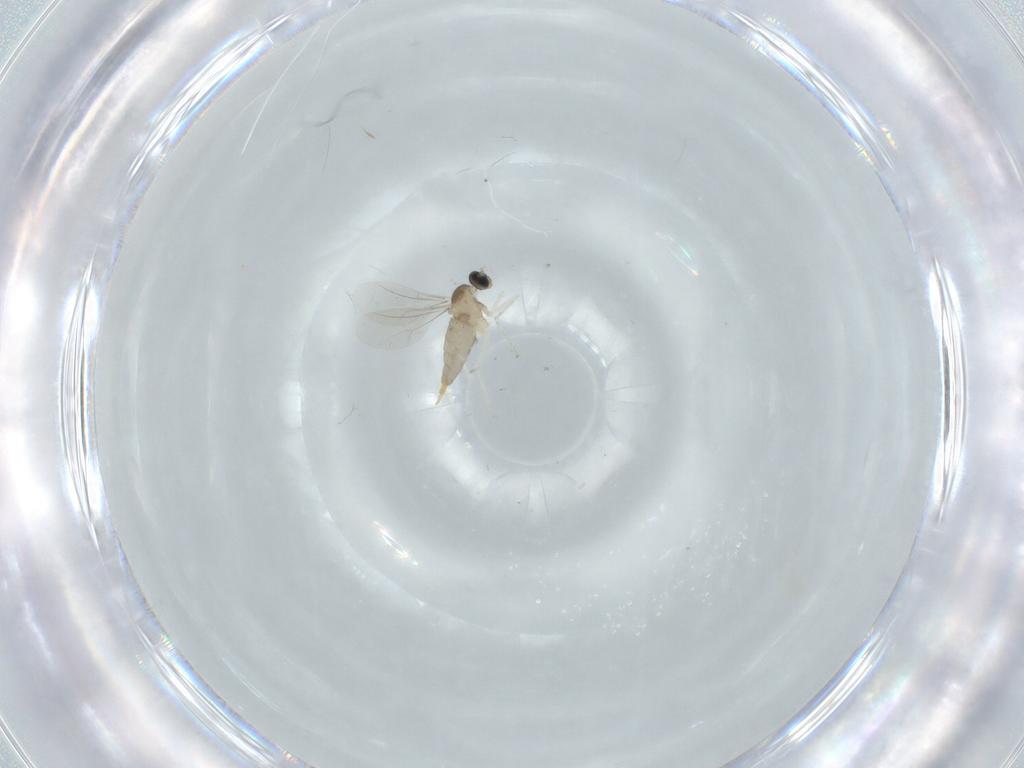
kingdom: Animalia
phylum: Arthropoda
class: Insecta
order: Diptera
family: Cecidomyiidae
